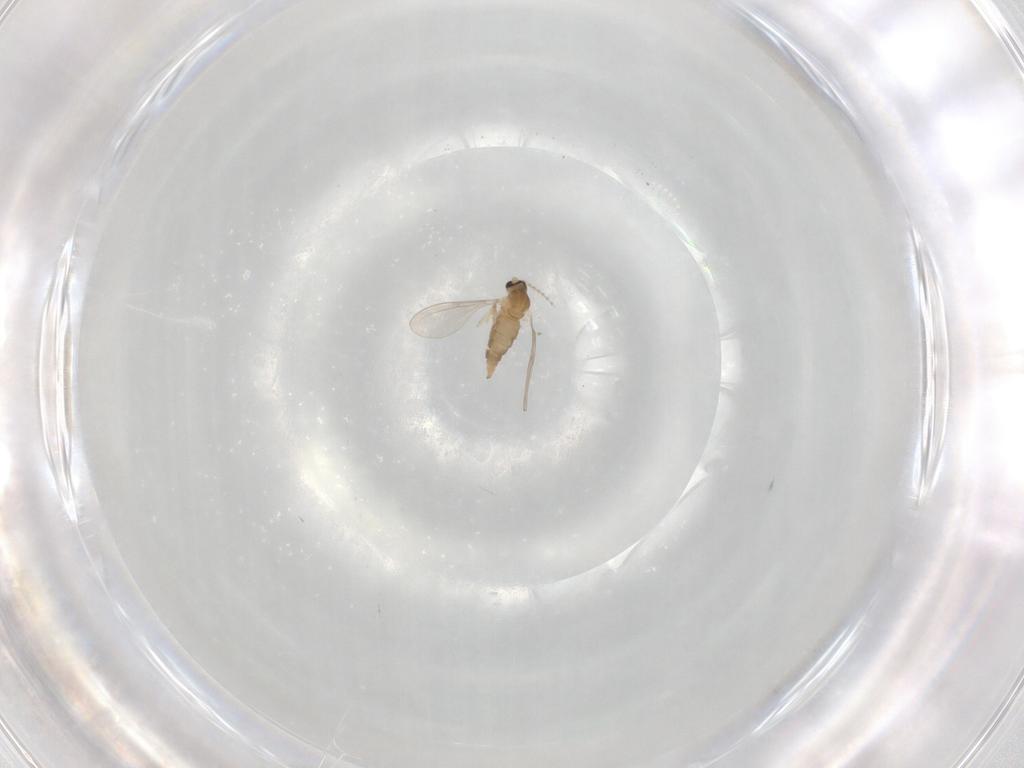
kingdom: Animalia
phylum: Arthropoda
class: Insecta
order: Diptera
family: Cecidomyiidae
